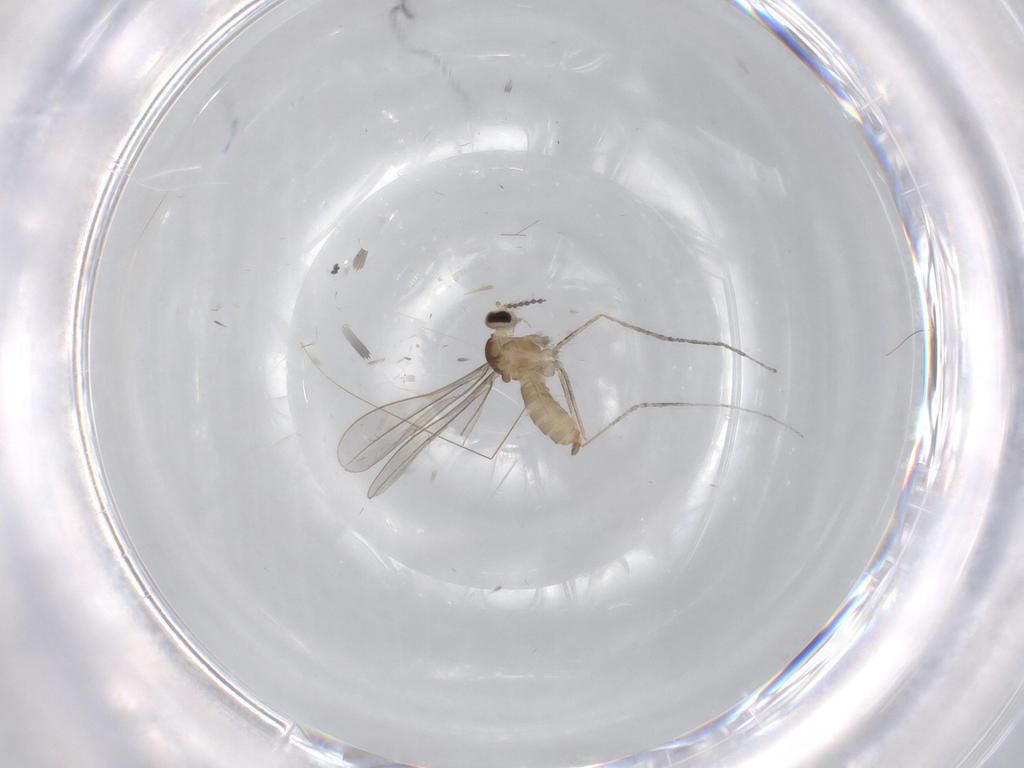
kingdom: Animalia
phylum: Arthropoda
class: Insecta
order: Diptera
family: Cecidomyiidae
